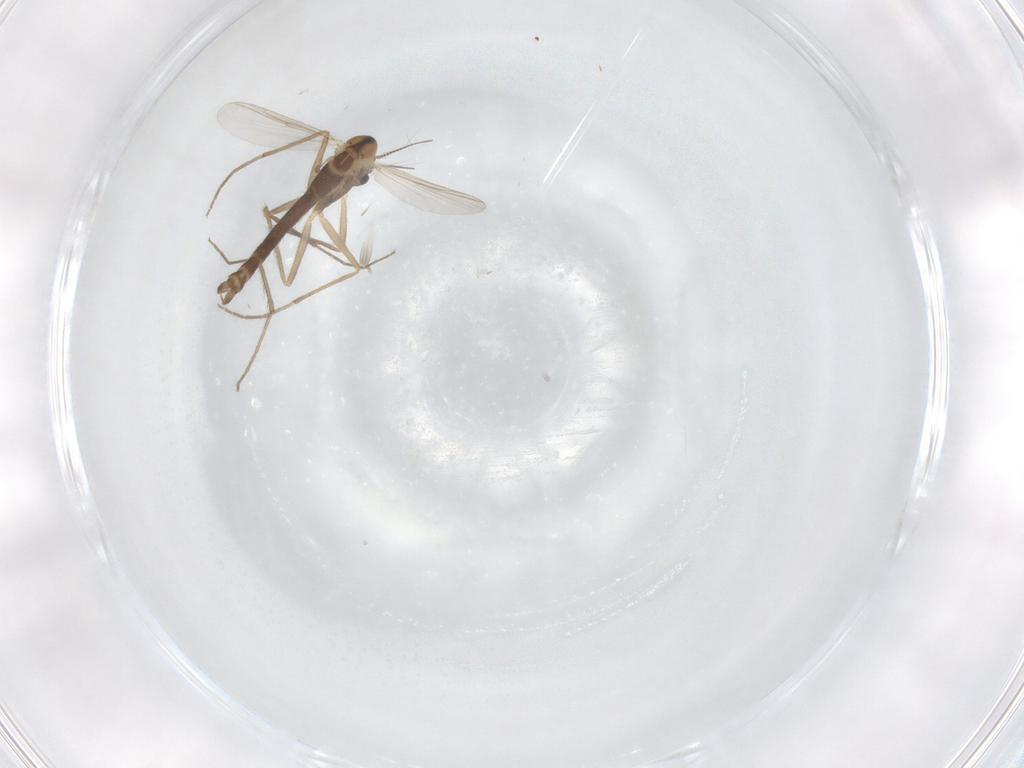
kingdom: Animalia
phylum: Arthropoda
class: Insecta
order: Diptera
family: Chironomidae
